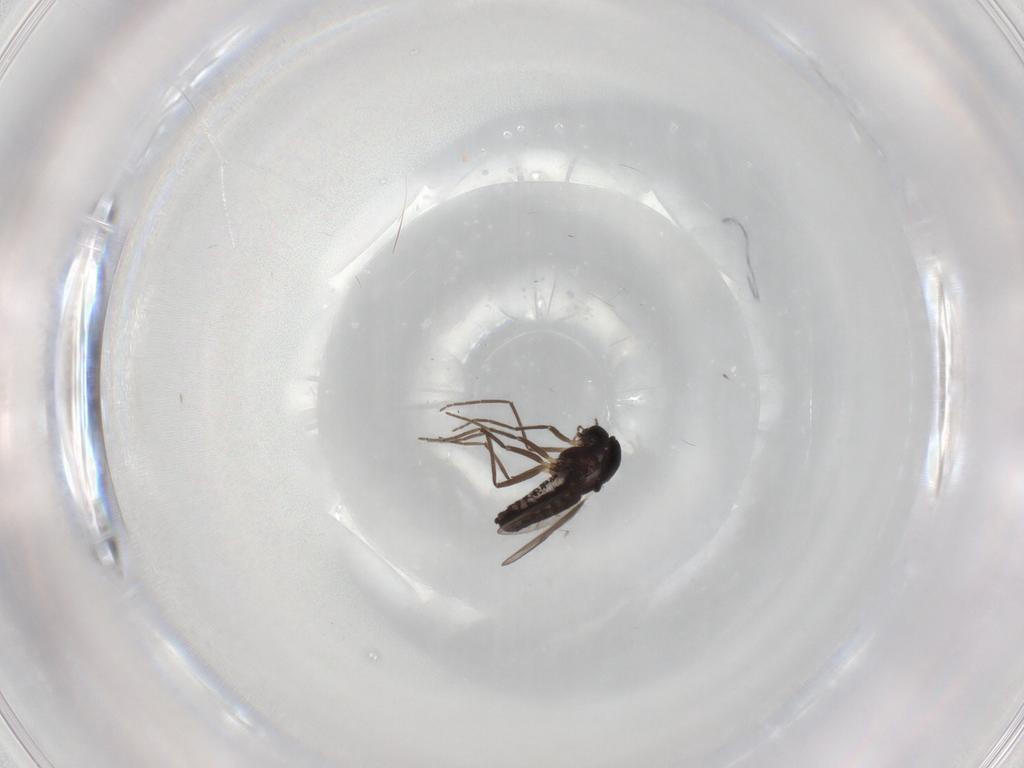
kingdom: Animalia
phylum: Arthropoda
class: Insecta
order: Diptera
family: Chironomidae
